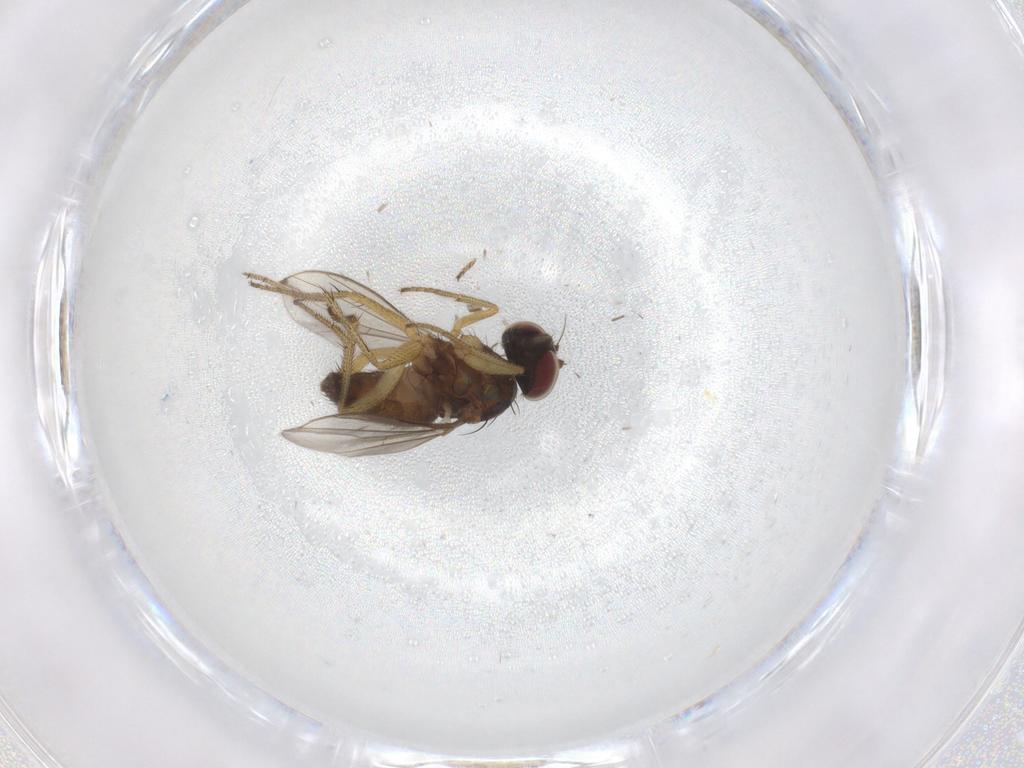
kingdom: Animalia
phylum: Arthropoda
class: Insecta
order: Diptera
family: Dolichopodidae
